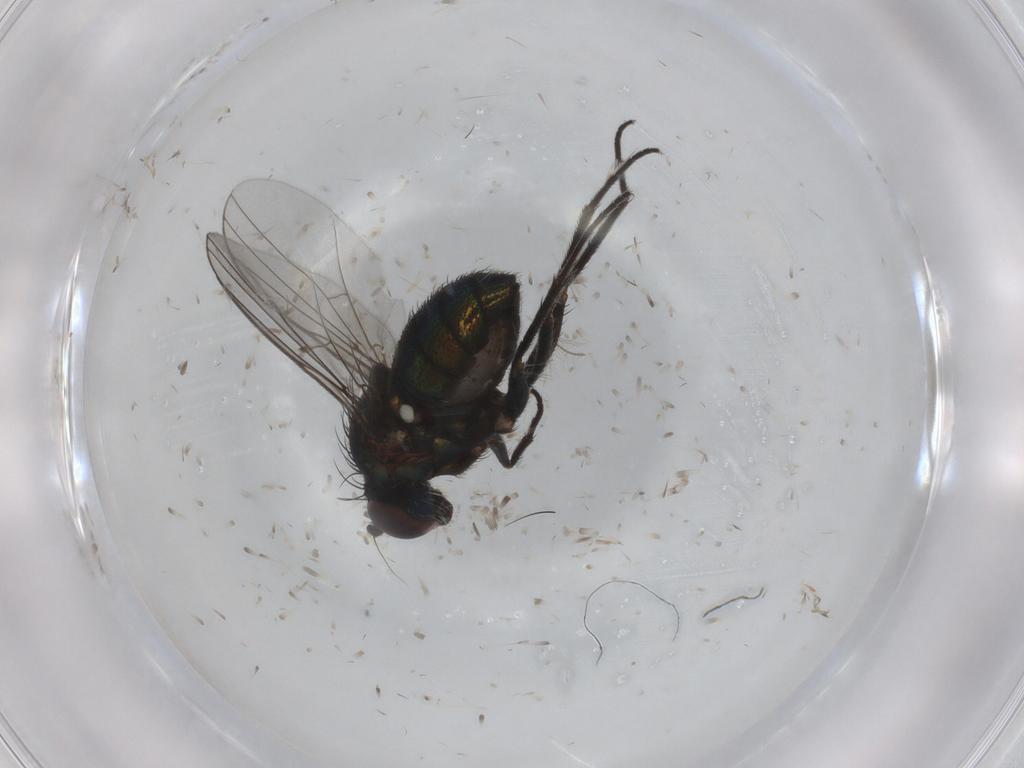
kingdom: Animalia
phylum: Arthropoda
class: Insecta
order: Diptera
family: Dolichopodidae
